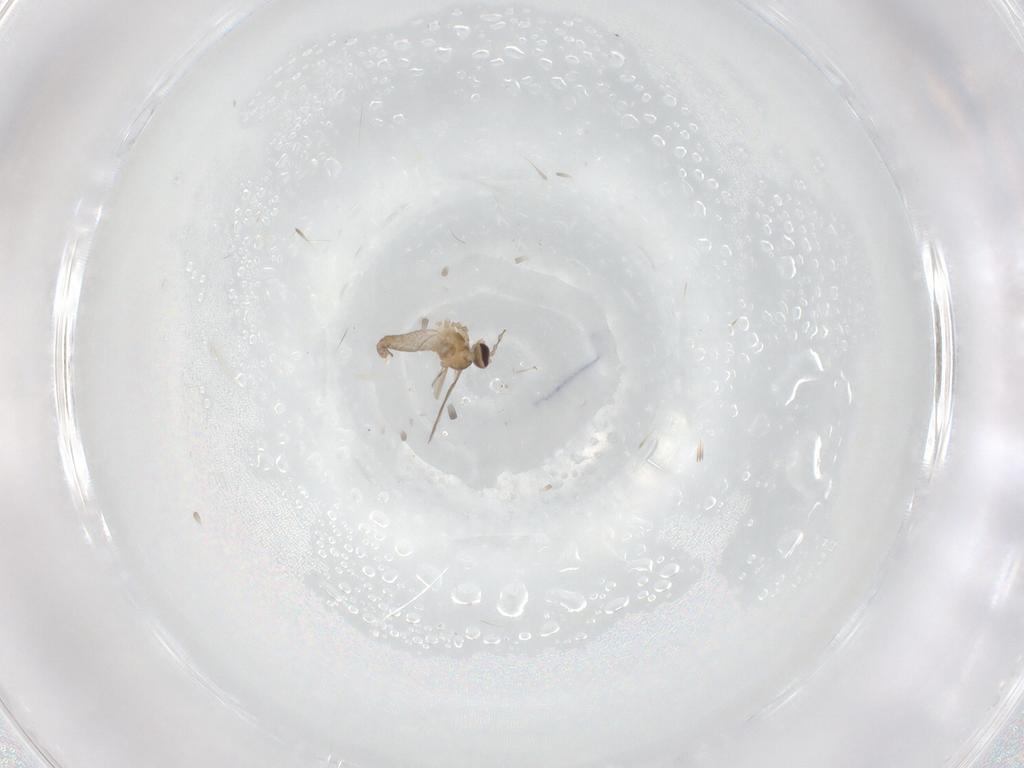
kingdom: Animalia
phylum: Arthropoda
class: Insecta
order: Diptera
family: Cecidomyiidae
